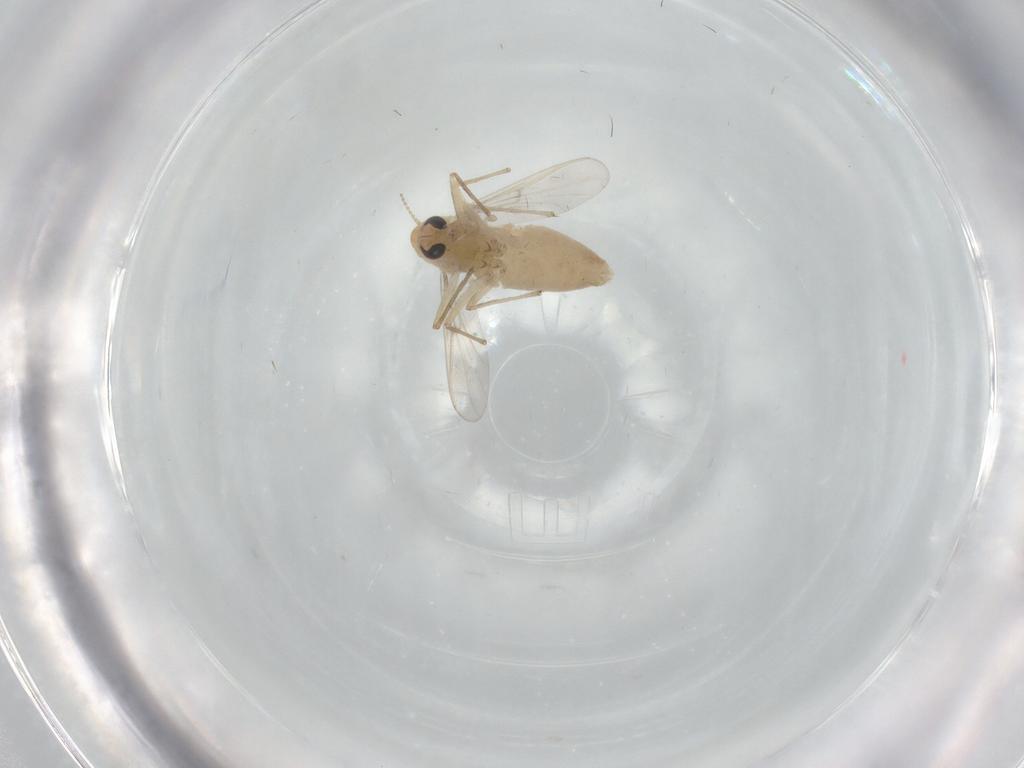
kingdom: Animalia
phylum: Arthropoda
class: Insecta
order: Diptera
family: Chironomidae
